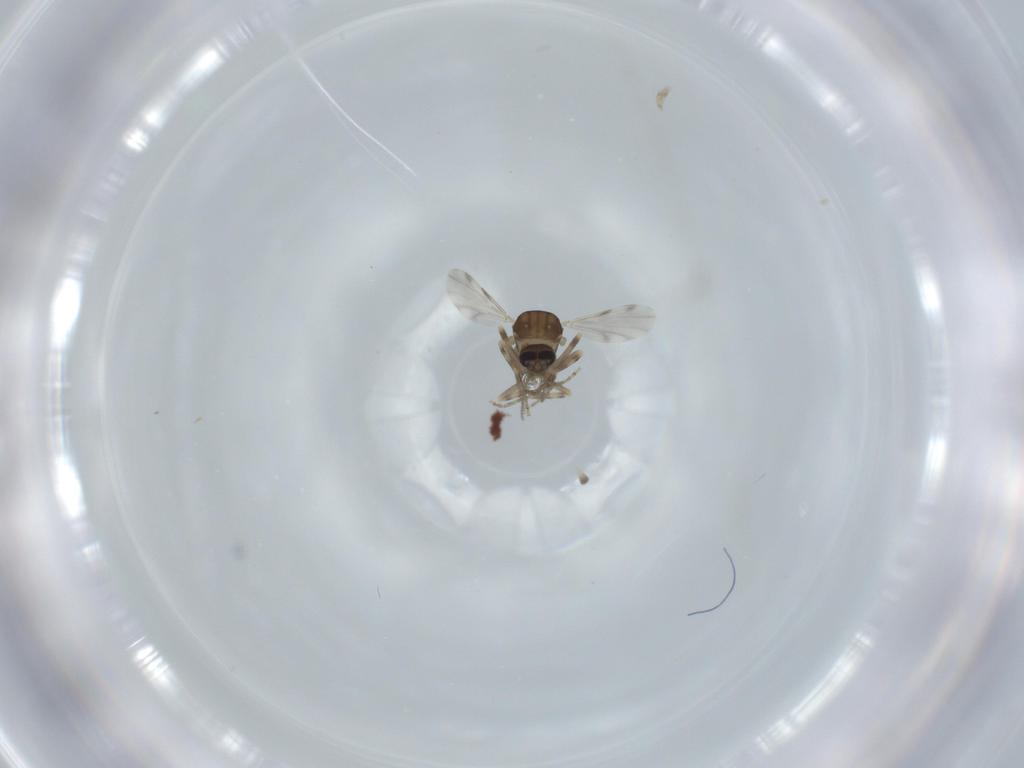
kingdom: Animalia
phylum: Arthropoda
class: Insecta
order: Diptera
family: Ceratopogonidae
